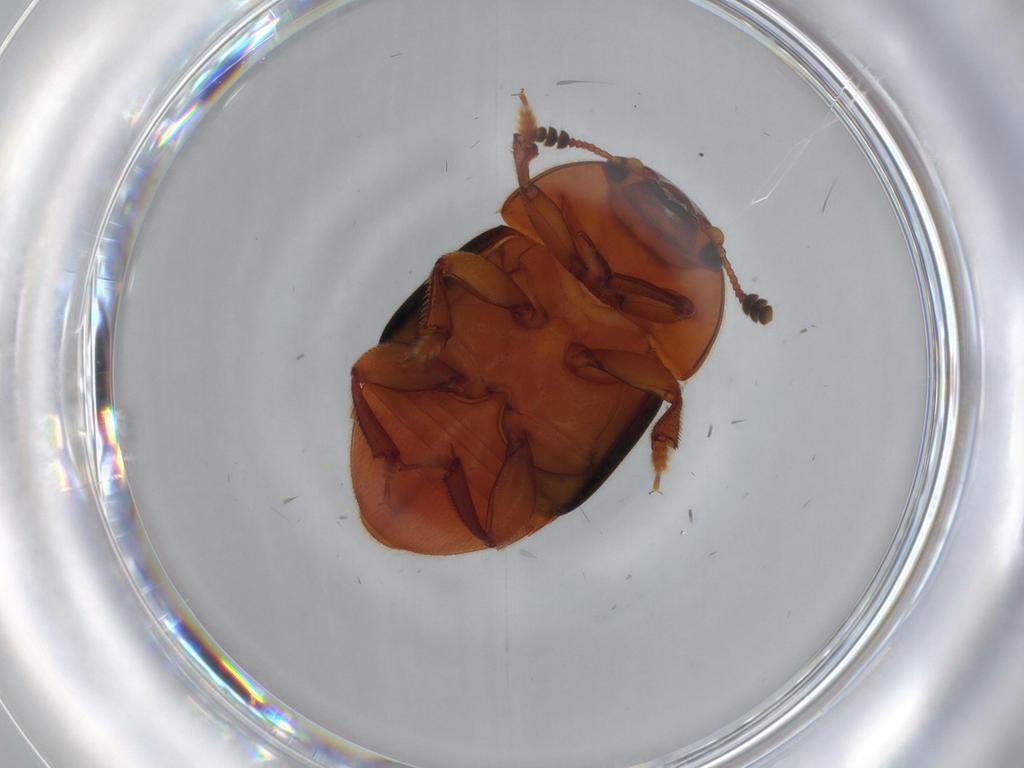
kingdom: Animalia
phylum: Arthropoda
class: Insecta
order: Coleoptera
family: Nitidulidae
